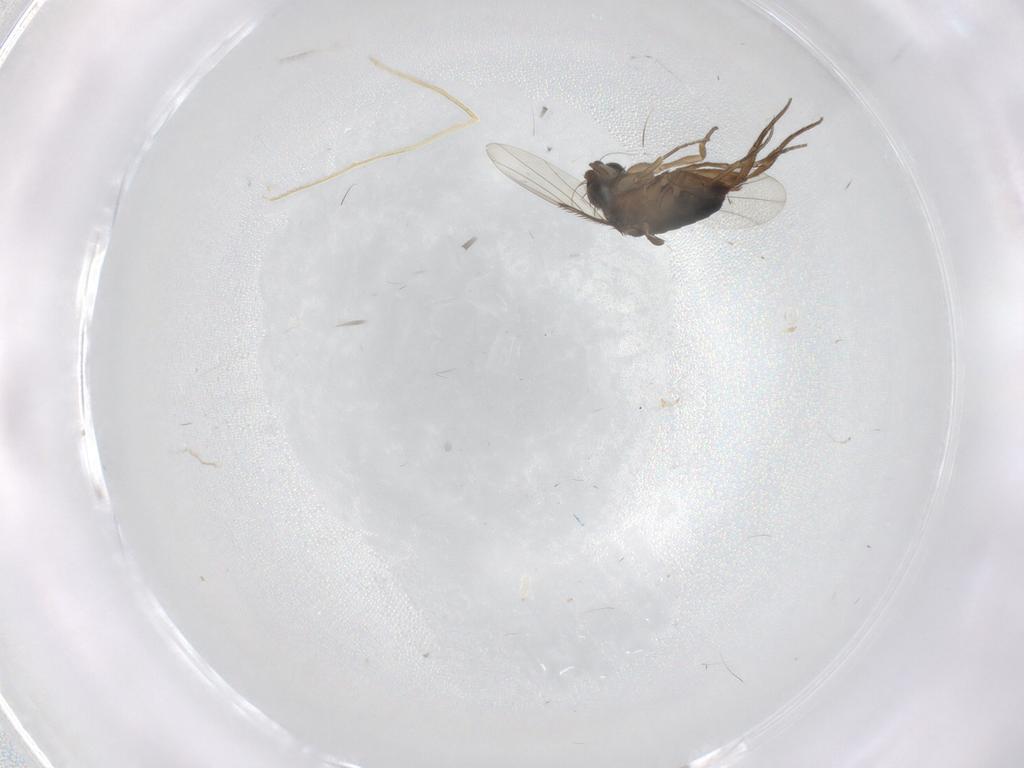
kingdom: Animalia
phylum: Arthropoda
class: Insecta
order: Diptera
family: Phoridae
